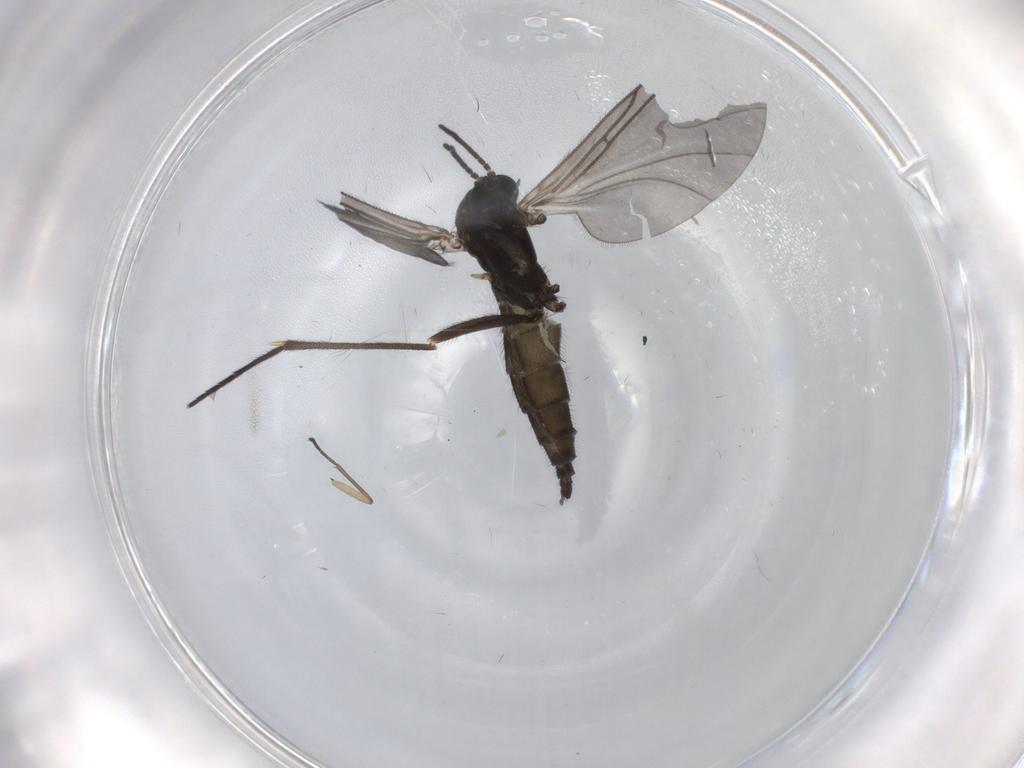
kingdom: Animalia
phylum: Arthropoda
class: Insecta
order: Diptera
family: Sciaridae
